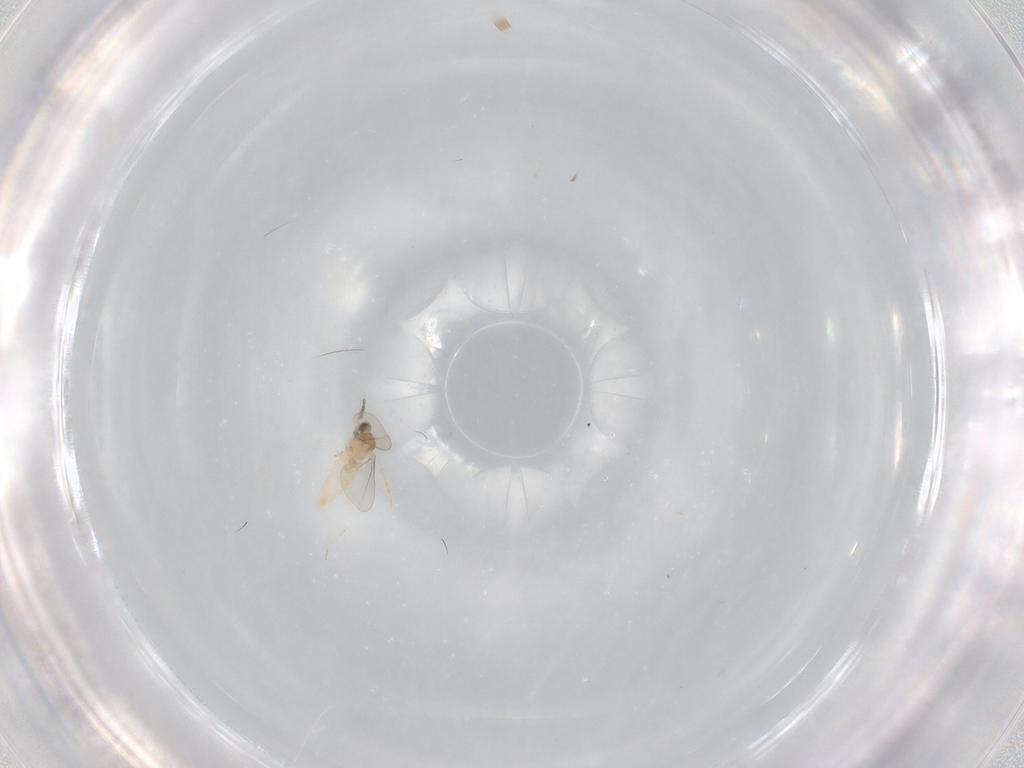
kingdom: Animalia
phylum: Arthropoda
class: Insecta
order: Diptera
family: Cecidomyiidae
